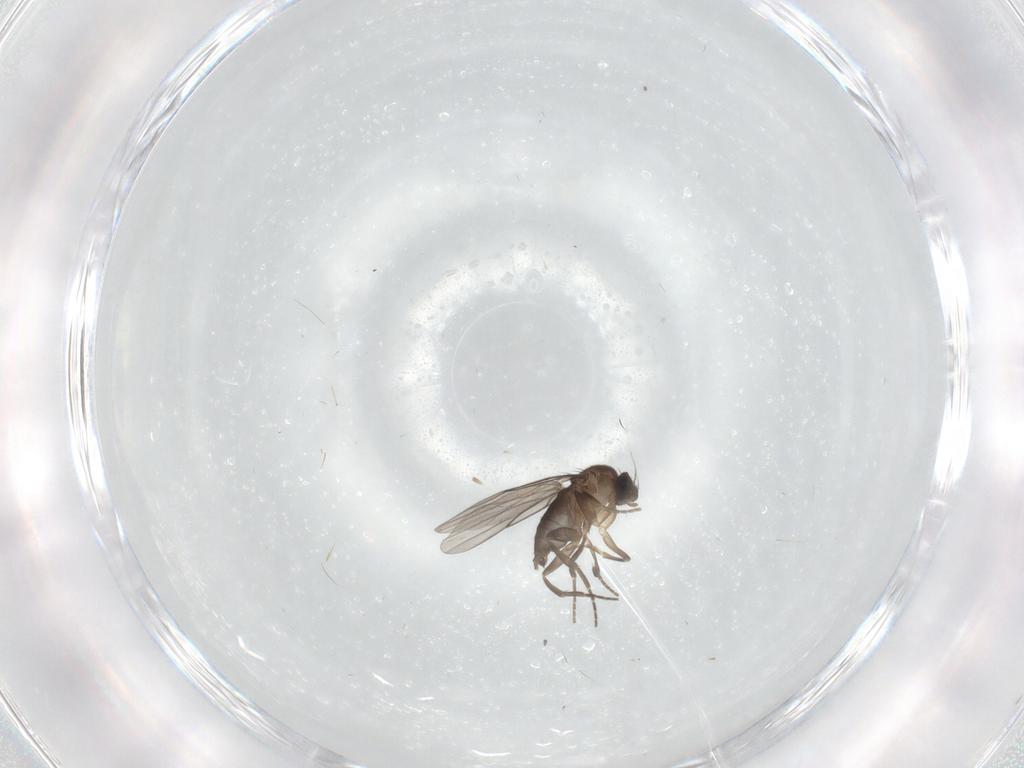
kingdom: Animalia
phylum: Arthropoda
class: Insecta
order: Diptera
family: Phoridae
